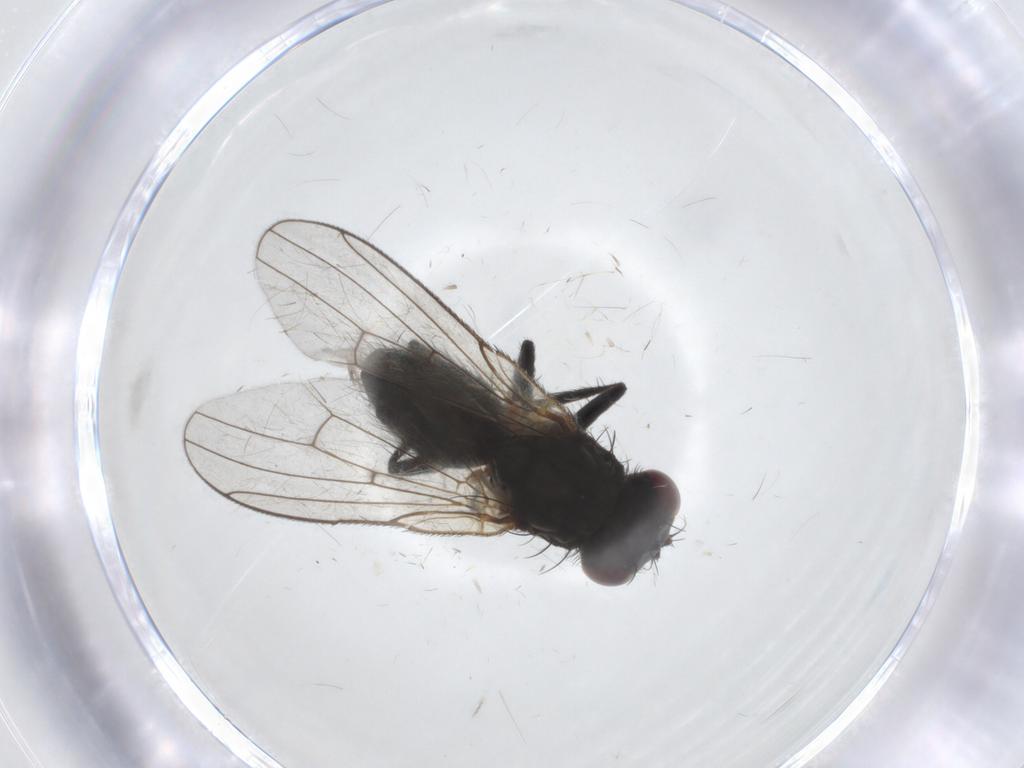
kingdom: Animalia
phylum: Arthropoda
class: Insecta
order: Diptera
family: Muscidae
